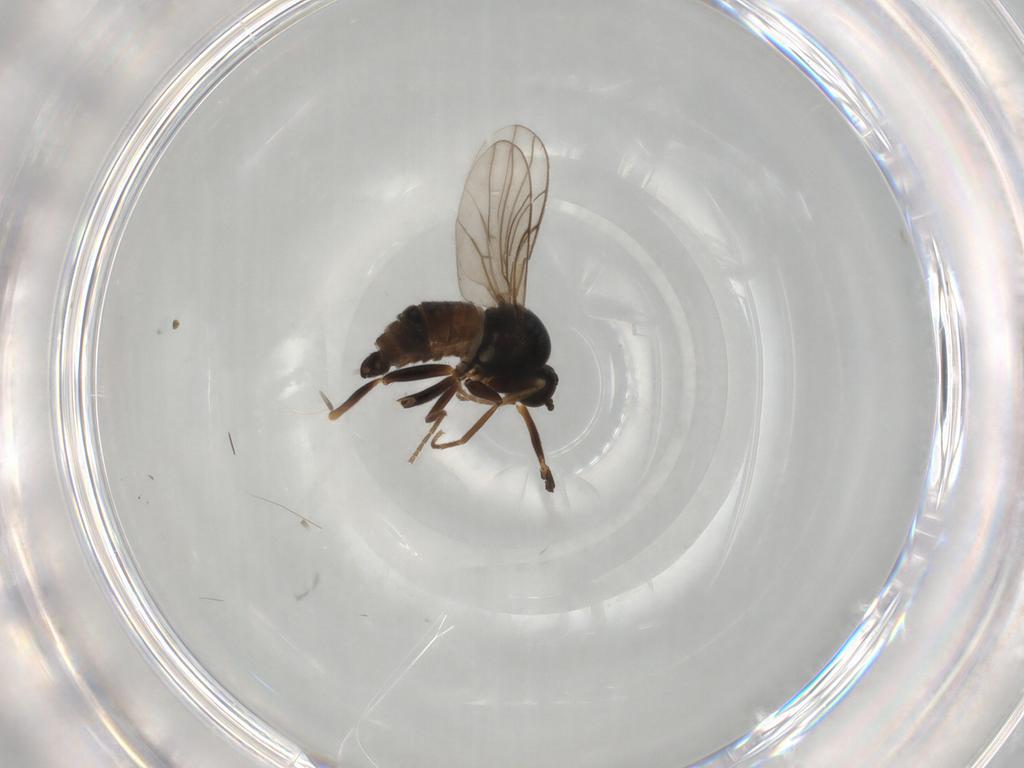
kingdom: Animalia
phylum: Arthropoda
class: Insecta
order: Diptera
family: Hybotidae
